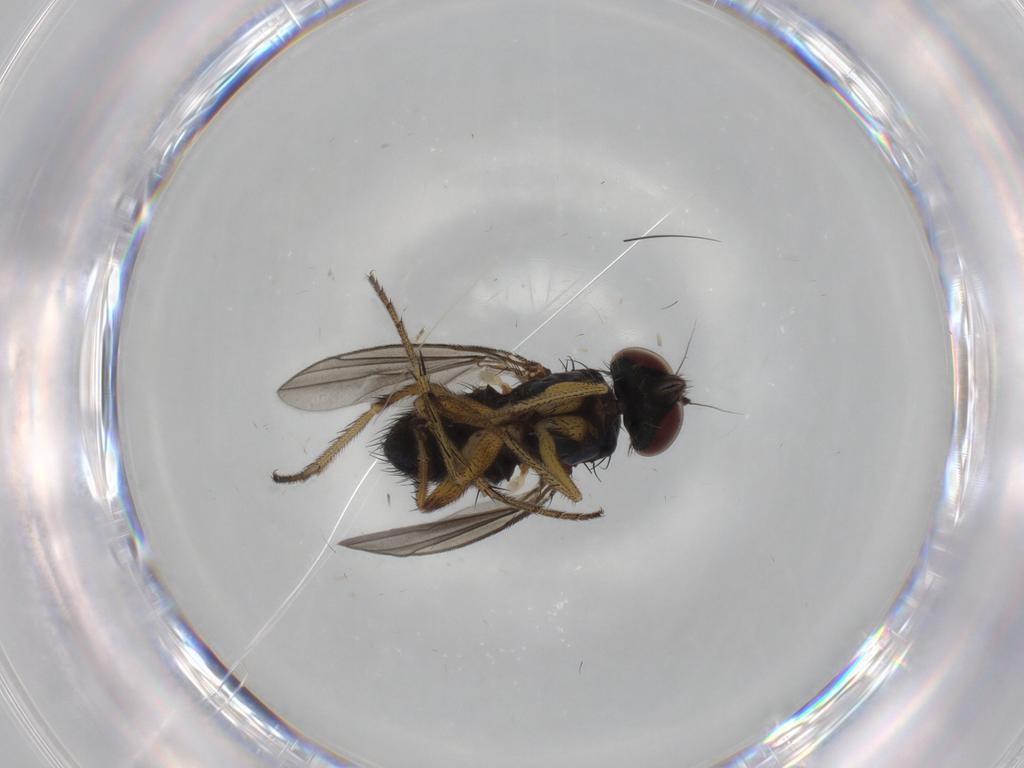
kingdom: Animalia
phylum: Arthropoda
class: Insecta
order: Diptera
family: Dolichopodidae
